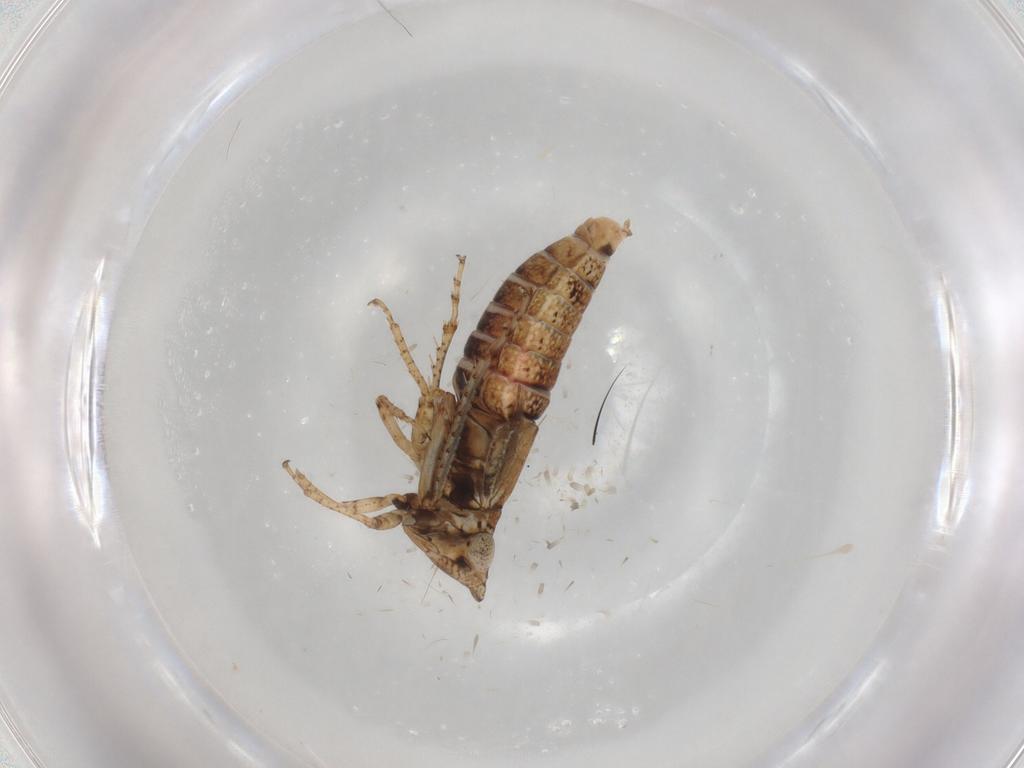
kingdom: Animalia
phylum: Arthropoda
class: Insecta
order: Hemiptera
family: Cicadellidae
